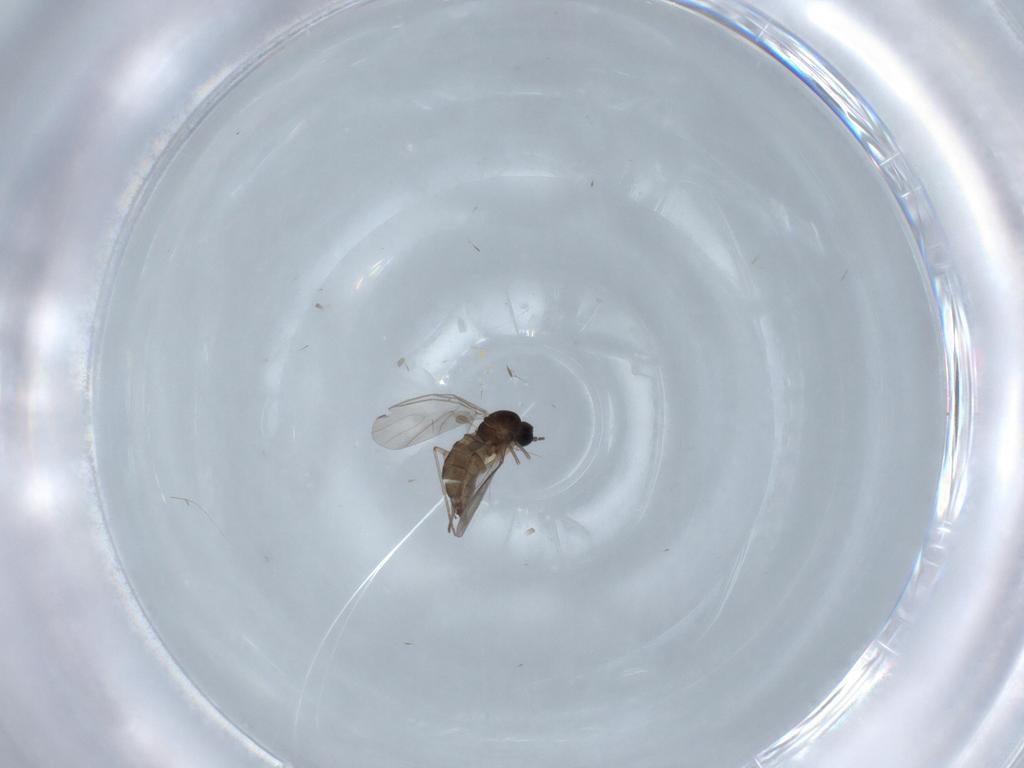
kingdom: Animalia
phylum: Arthropoda
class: Insecta
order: Diptera
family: Sciaridae
